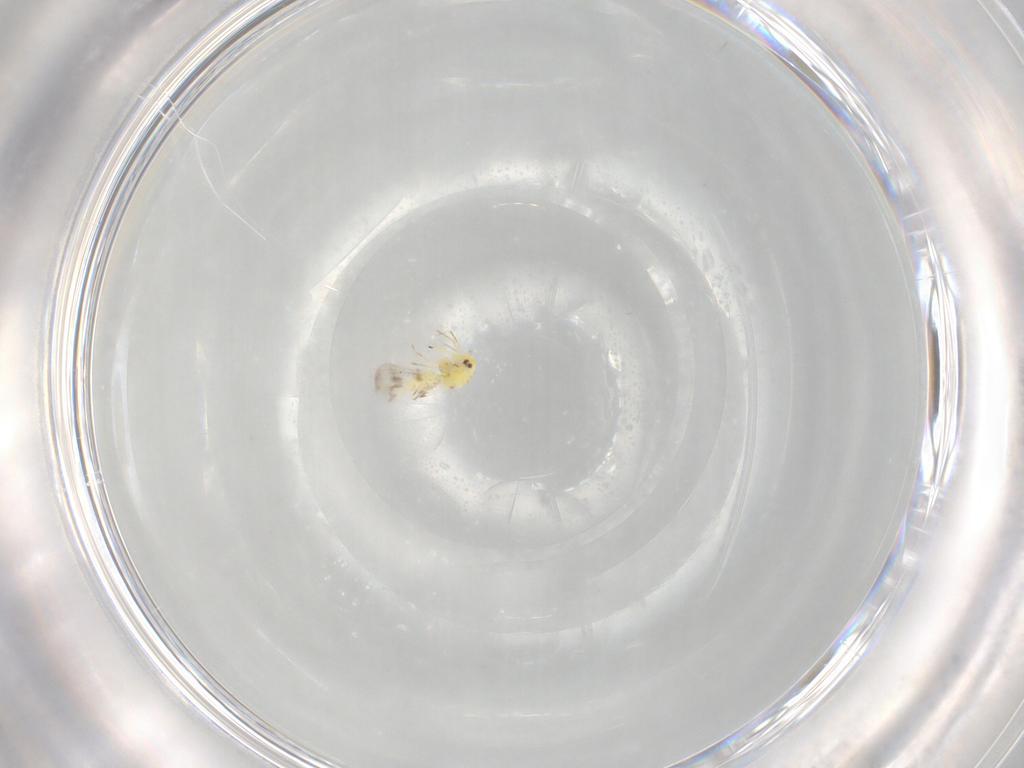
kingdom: Animalia
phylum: Arthropoda
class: Insecta
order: Hemiptera
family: Aleyrodidae
